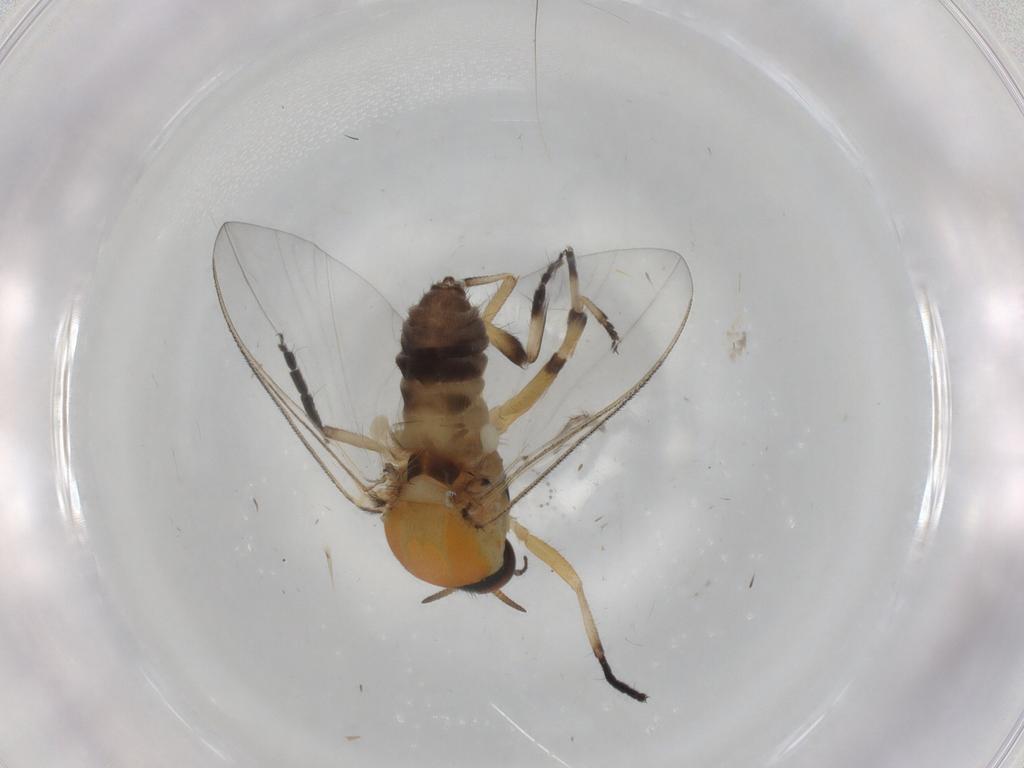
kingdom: Animalia
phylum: Arthropoda
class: Insecta
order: Diptera
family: Simuliidae
